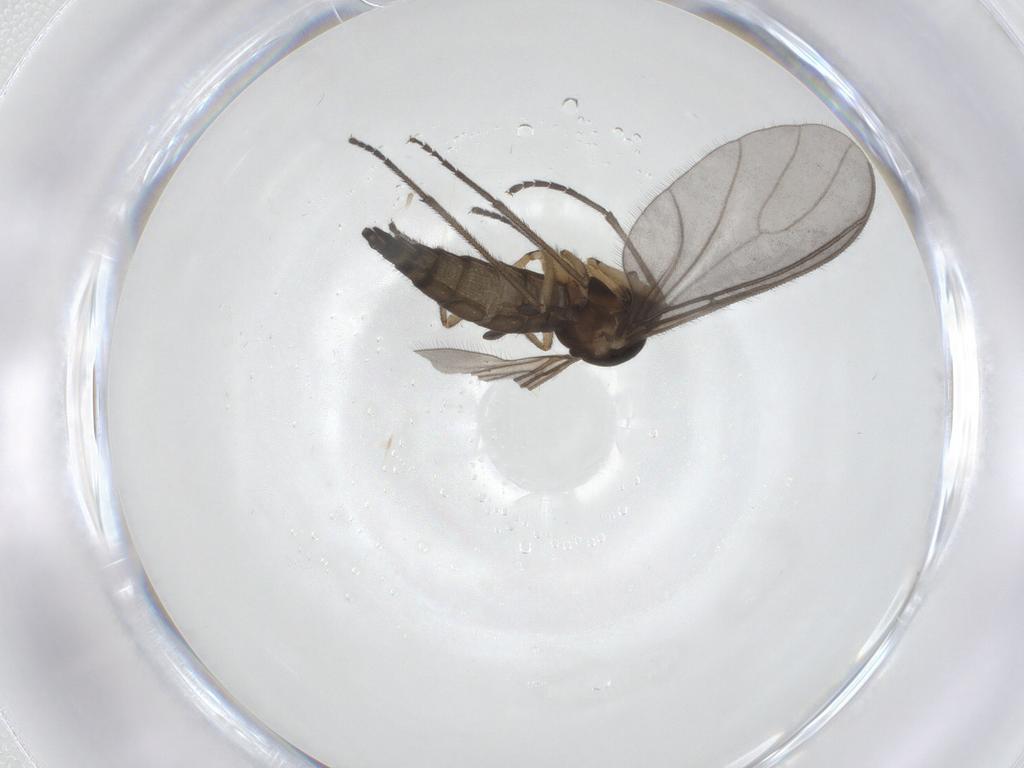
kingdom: Animalia
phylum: Arthropoda
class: Insecta
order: Diptera
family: Sciaridae
